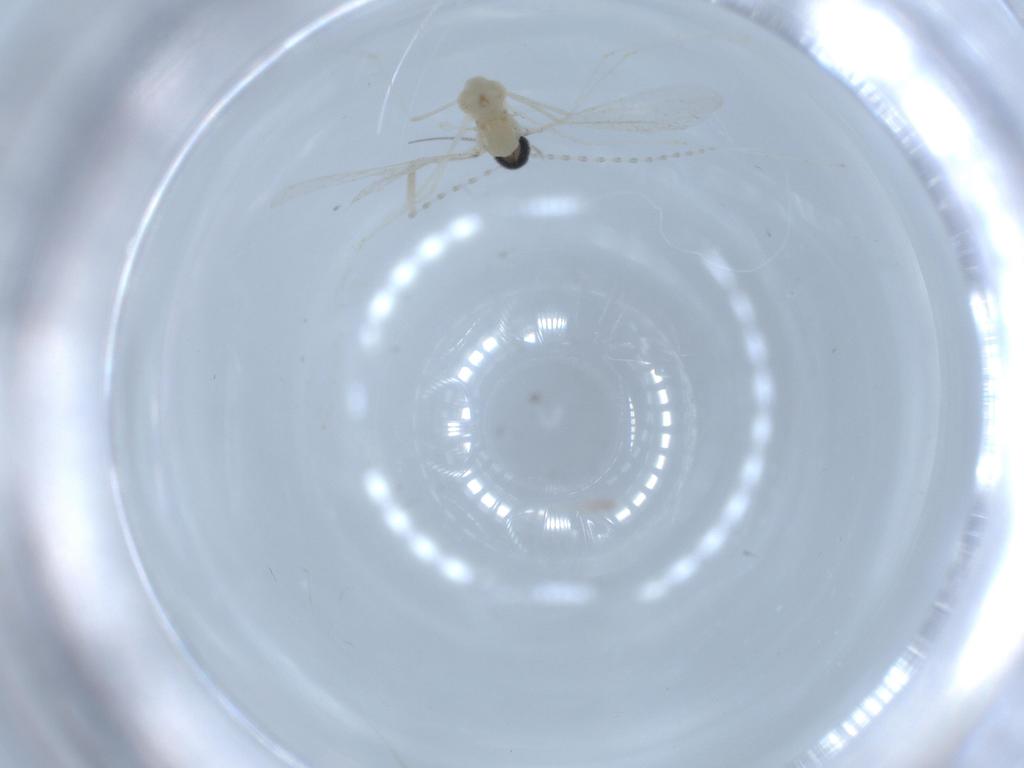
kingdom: Animalia
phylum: Arthropoda
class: Insecta
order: Diptera
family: Cecidomyiidae
